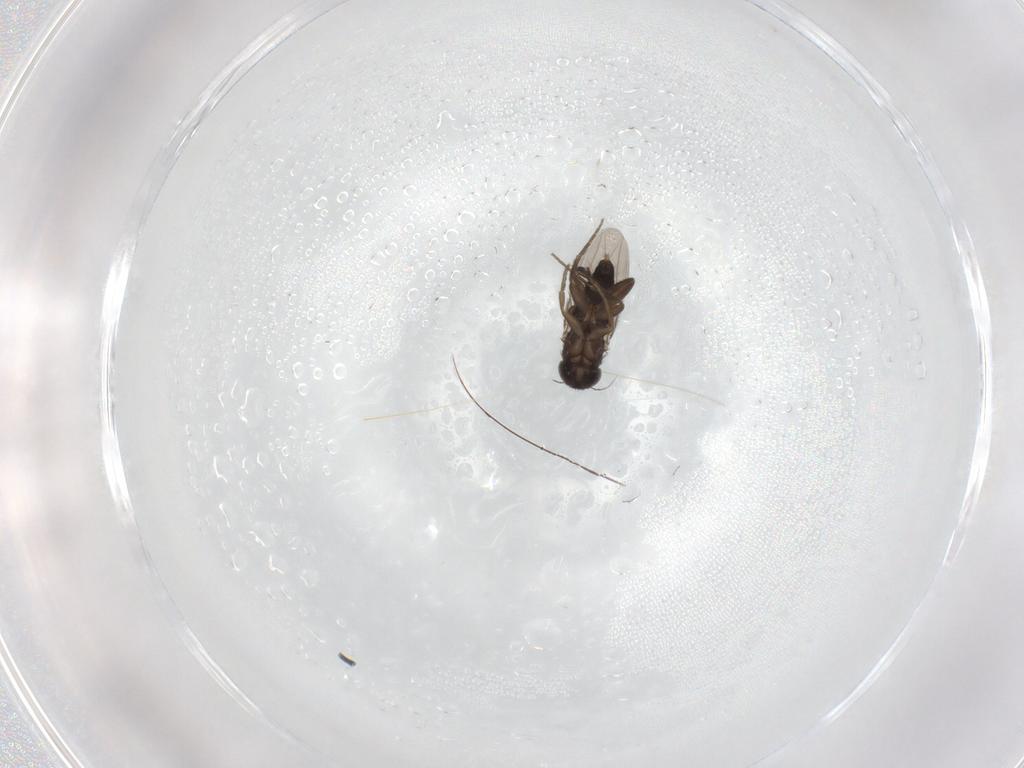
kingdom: Animalia
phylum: Arthropoda
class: Insecta
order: Diptera
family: Phoridae
